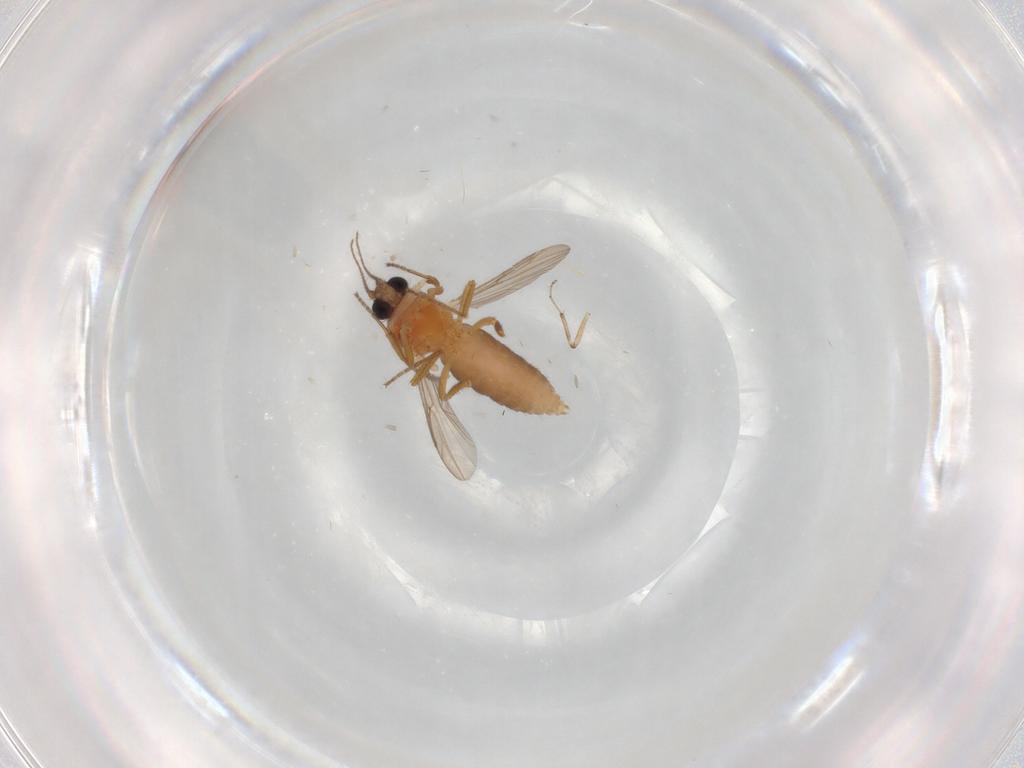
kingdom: Animalia
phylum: Arthropoda
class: Insecta
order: Diptera
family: Cecidomyiidae
